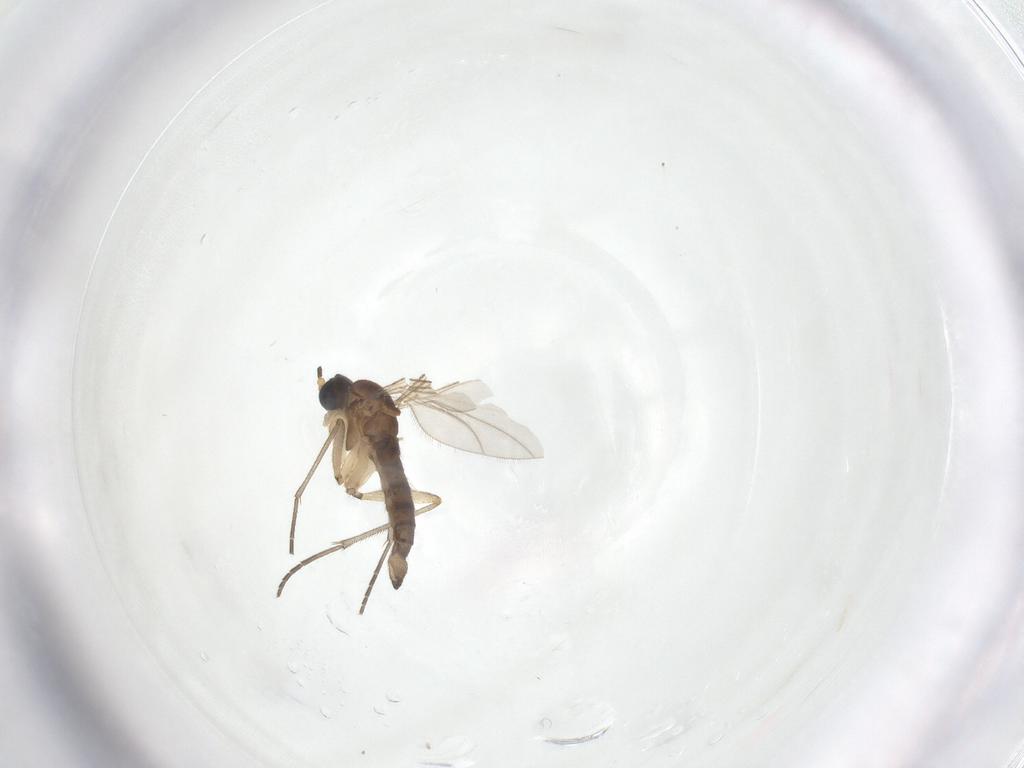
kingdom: Animalia
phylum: Arthropoda
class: Insecta
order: Diptera
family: Sciaridae
